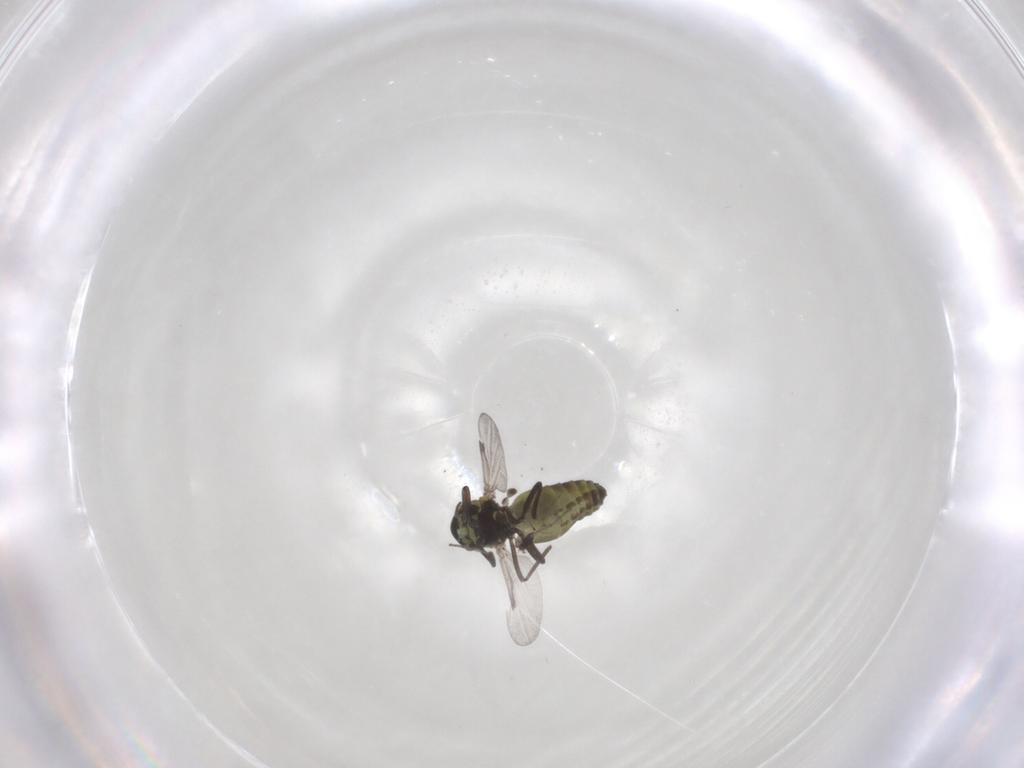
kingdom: Animalia
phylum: Arthropoda
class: Insecta
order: Diptera
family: Ceratopogonidae
